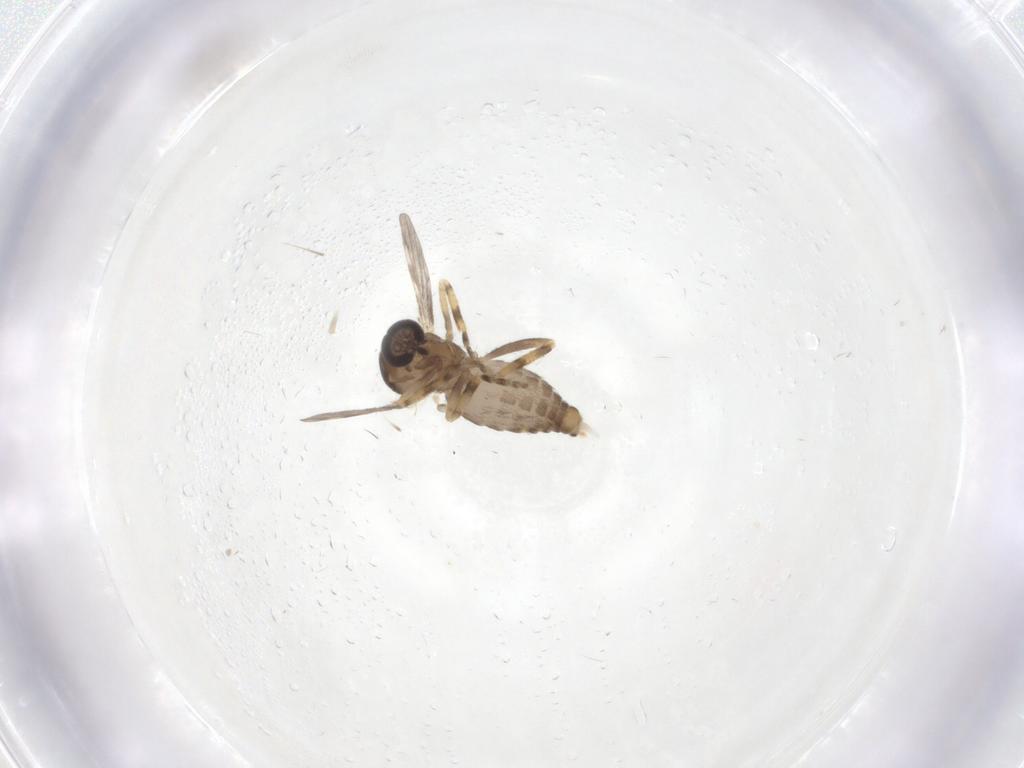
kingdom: Animalia
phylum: Arthropoda
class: Insecta
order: Diptera
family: Ceratopogonidae
